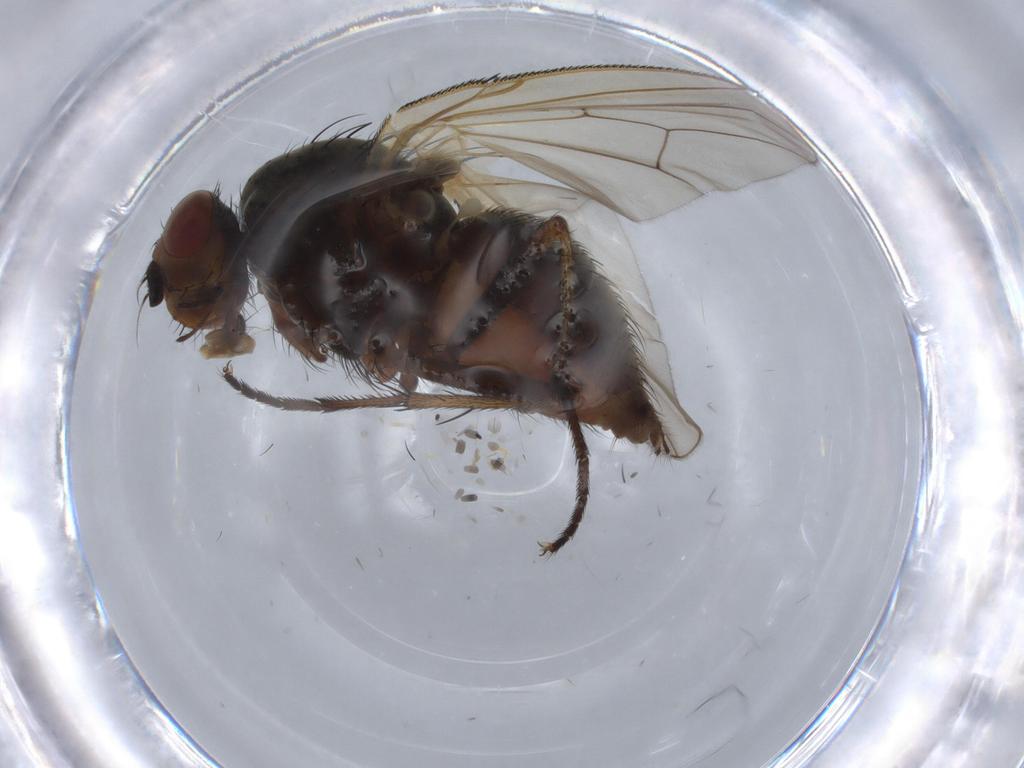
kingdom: Animalia
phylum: Arthropoda
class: Insecta
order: Diptera
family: Anthomyiidae
